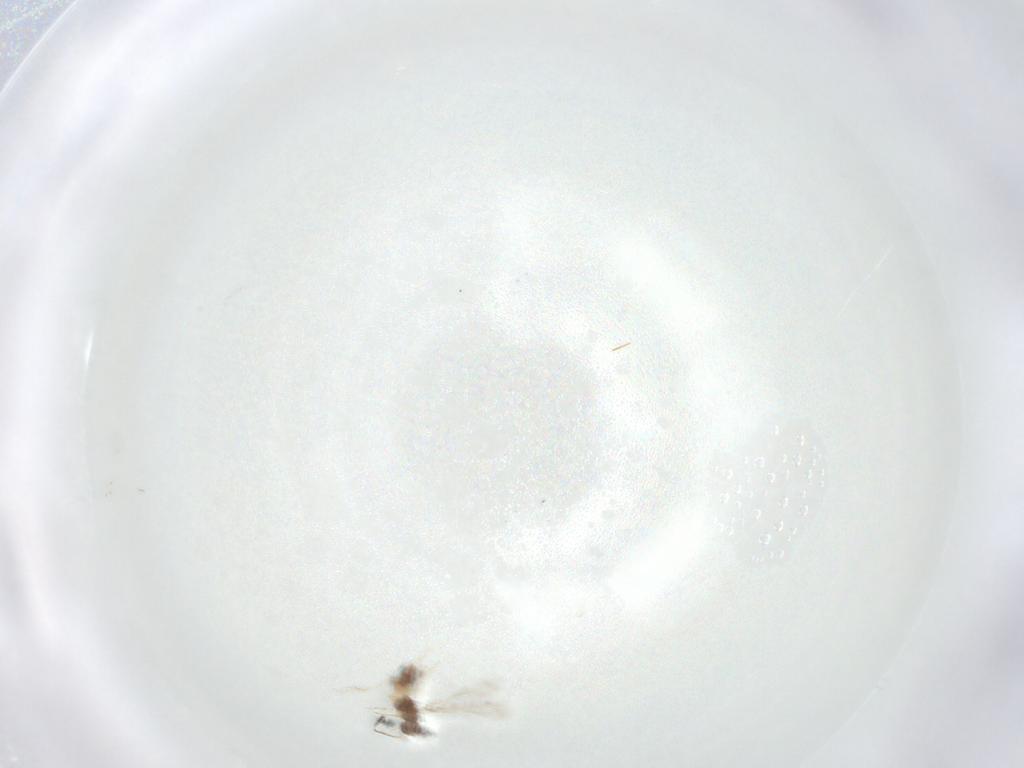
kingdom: Animalia
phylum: Arthropoda
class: Insecta
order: Hymenoptera
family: Mymaridae
